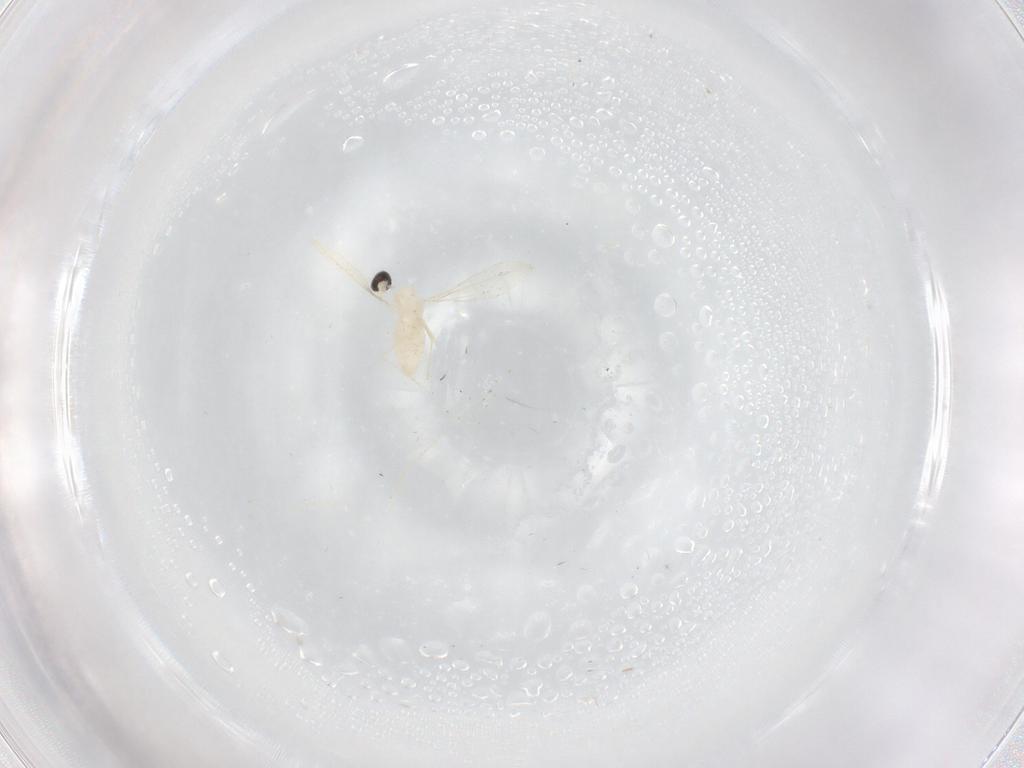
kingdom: Animalia
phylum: Arthropoda
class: Insecta
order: Diptera
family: Cecidomyiidae
